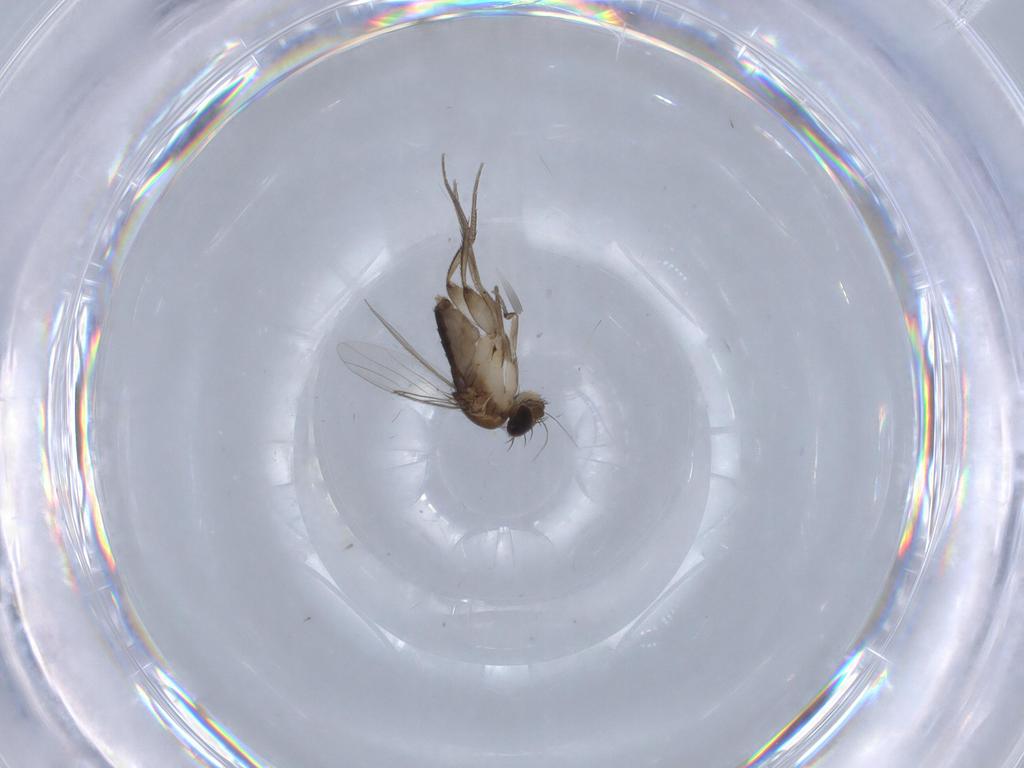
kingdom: Animalia
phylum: Arthropoda
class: Insecta
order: Diptera
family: Phoridae
